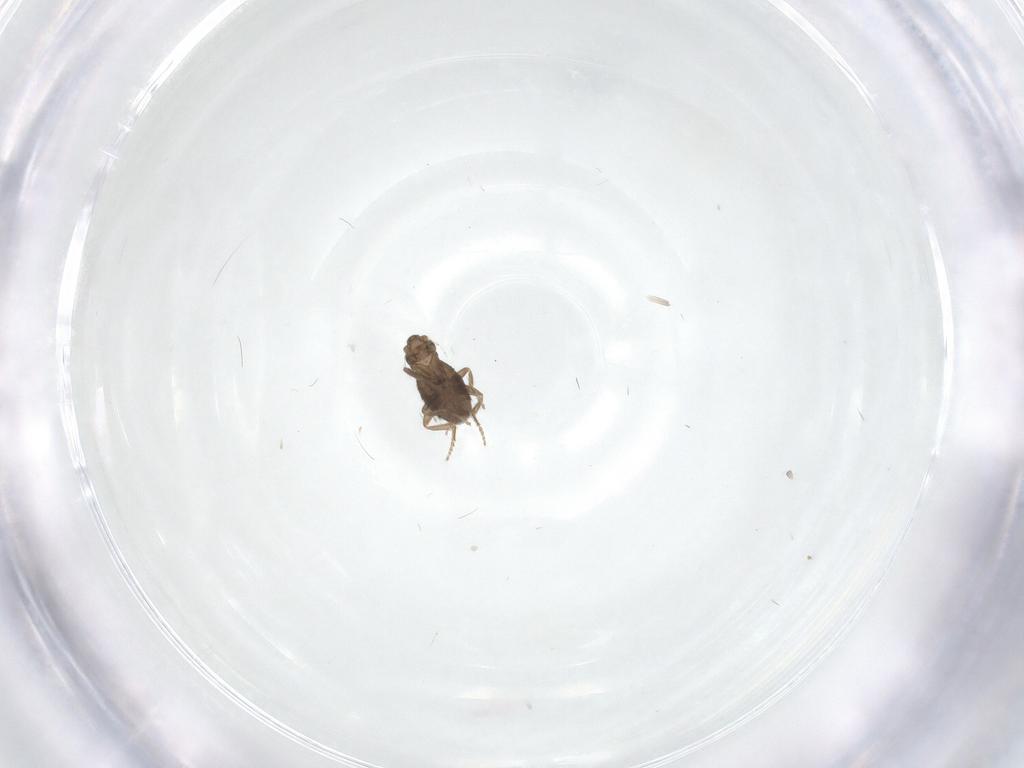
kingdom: Animalia
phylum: Arthropoda
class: Insecta
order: Diptera
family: Phoridae
